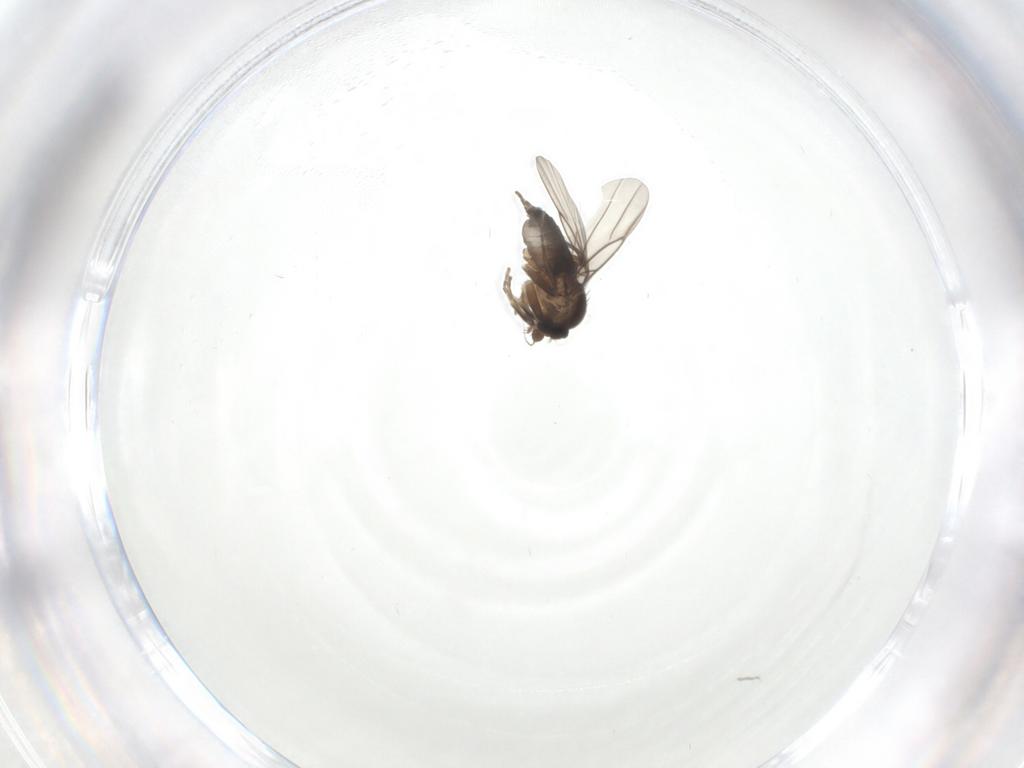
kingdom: Animalia
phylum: Arthropoda
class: Insecta
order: Diptera
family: Phoridae
